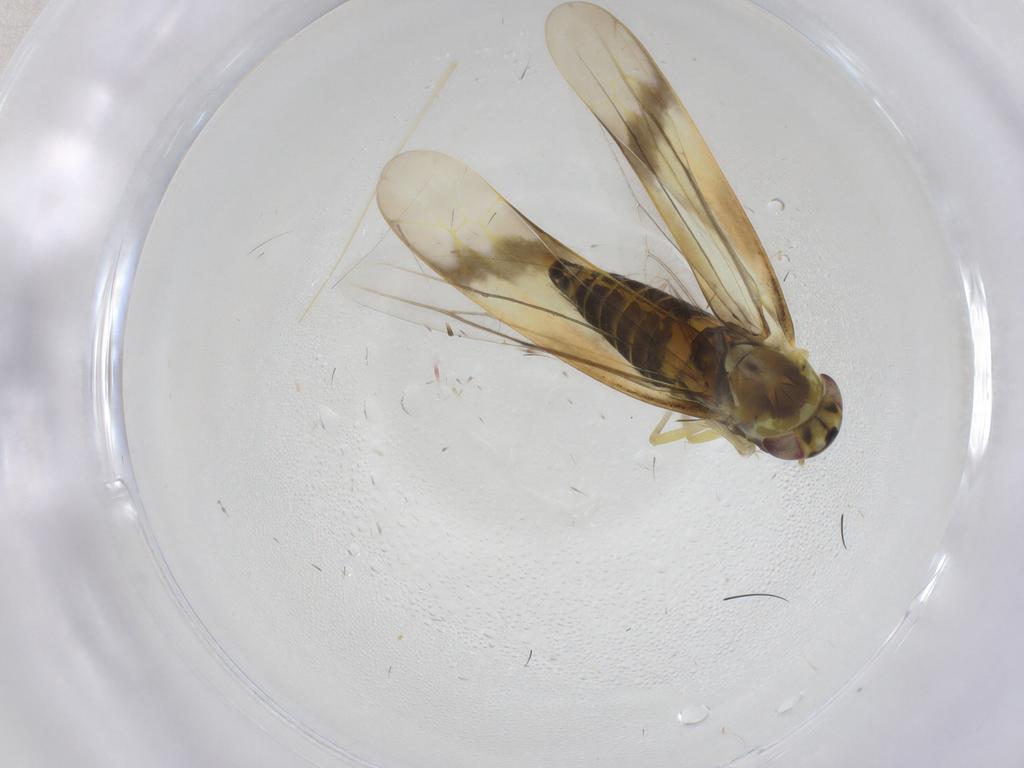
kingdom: Animalia
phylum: Arthropoda
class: Insecta
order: Hemiptera
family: Cicadellidae
